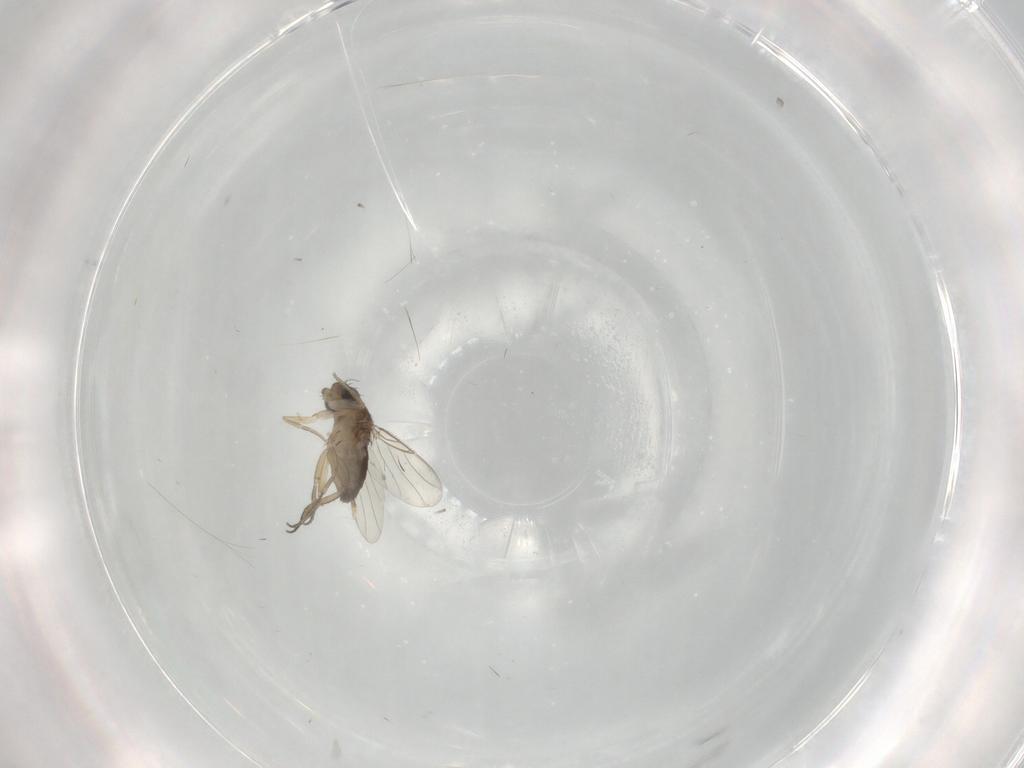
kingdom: Animalia
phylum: Arthropoda
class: Insecta
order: Diptera
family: Phoridae
